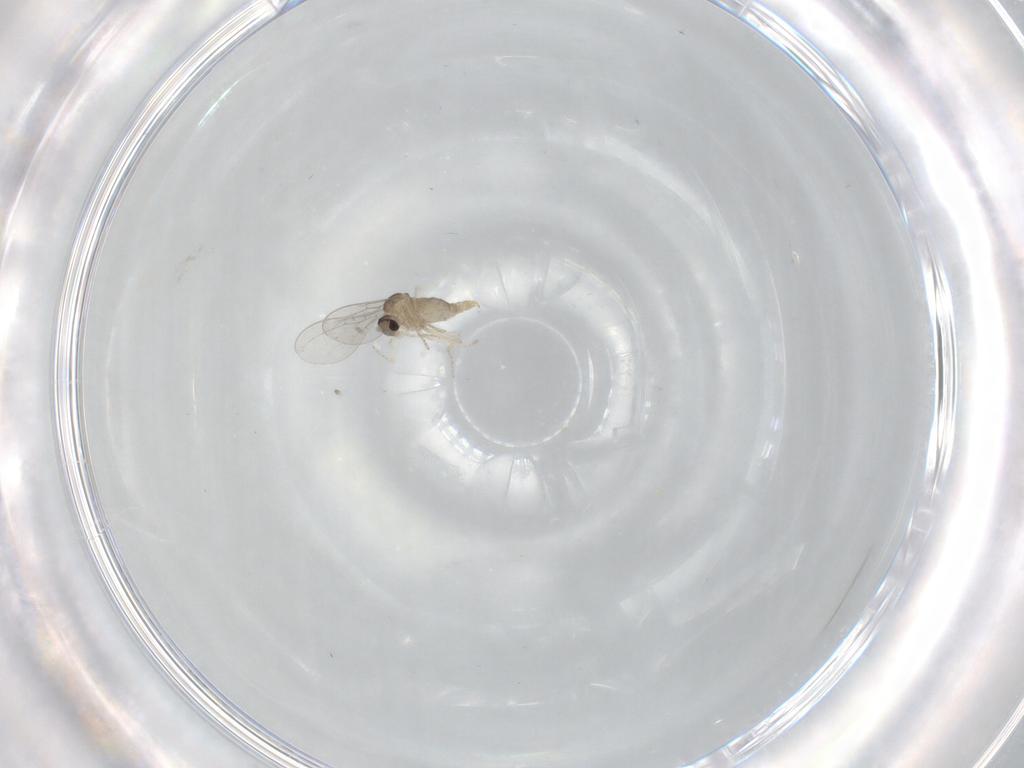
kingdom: Animalia
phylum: Arthropoda
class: Insecta
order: Diptera
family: Cecidomyiidae
